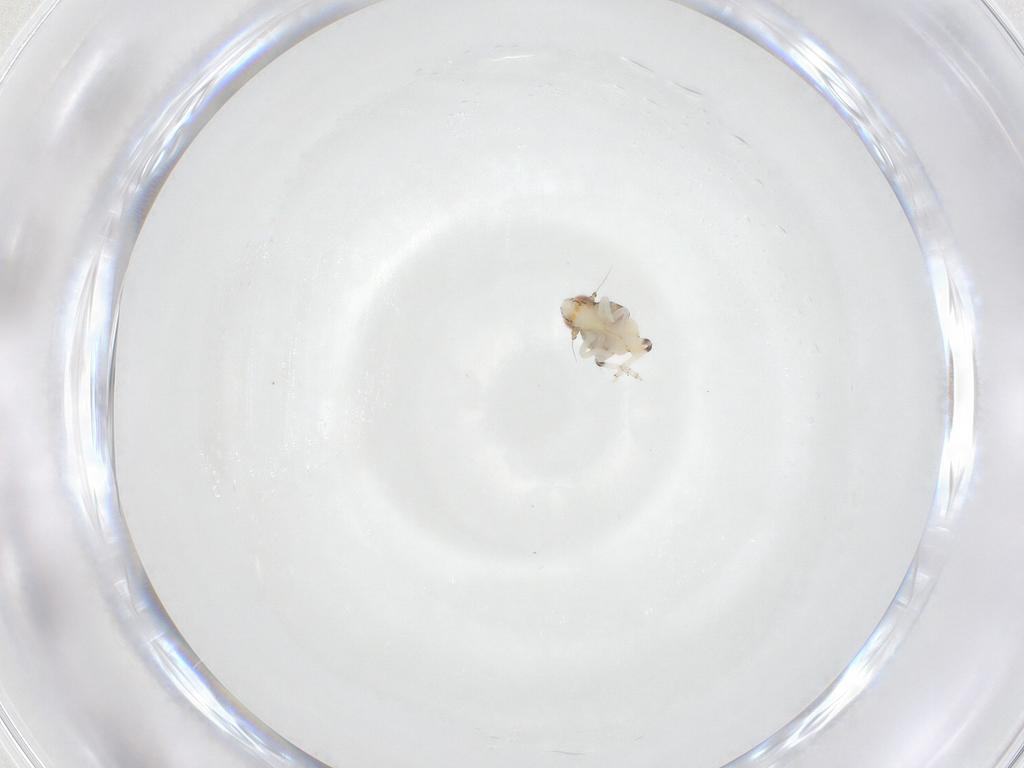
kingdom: Animalia
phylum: Arthropoda
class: Insecta
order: Hemiptera
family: Nogodinidae
